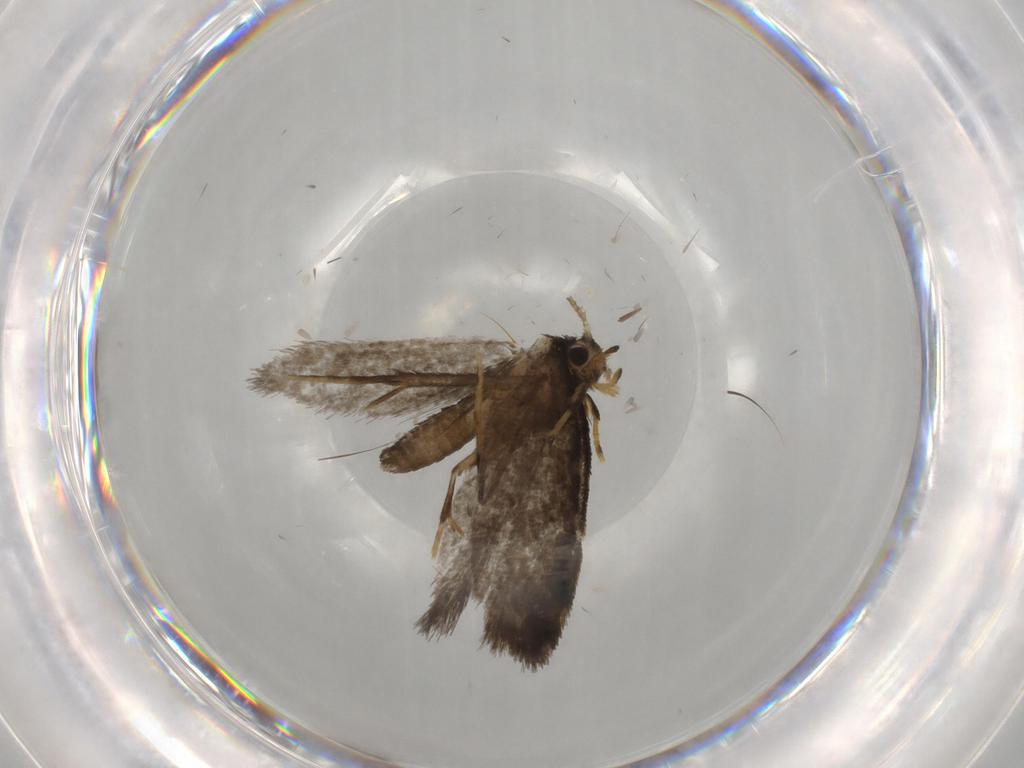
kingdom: Animalia
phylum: Arthropoda
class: Insecta
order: Lepidoptera
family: Psychidae
